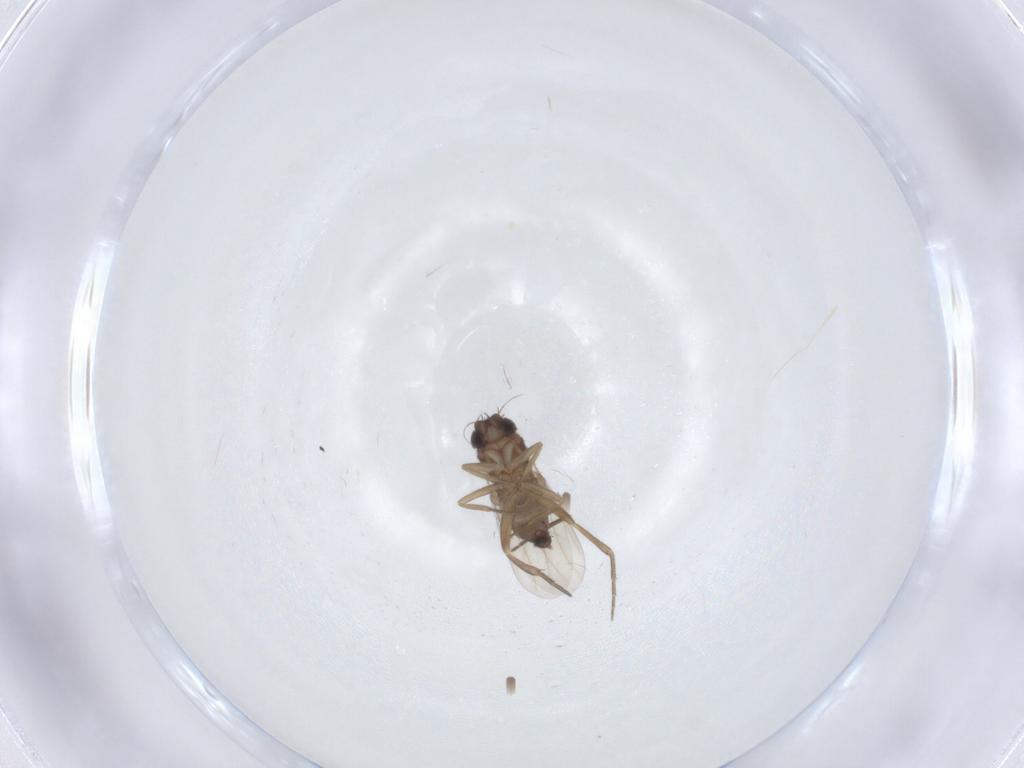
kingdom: Animalia
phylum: Arthropoda
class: Insecta
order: Diptera
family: Phoridae
